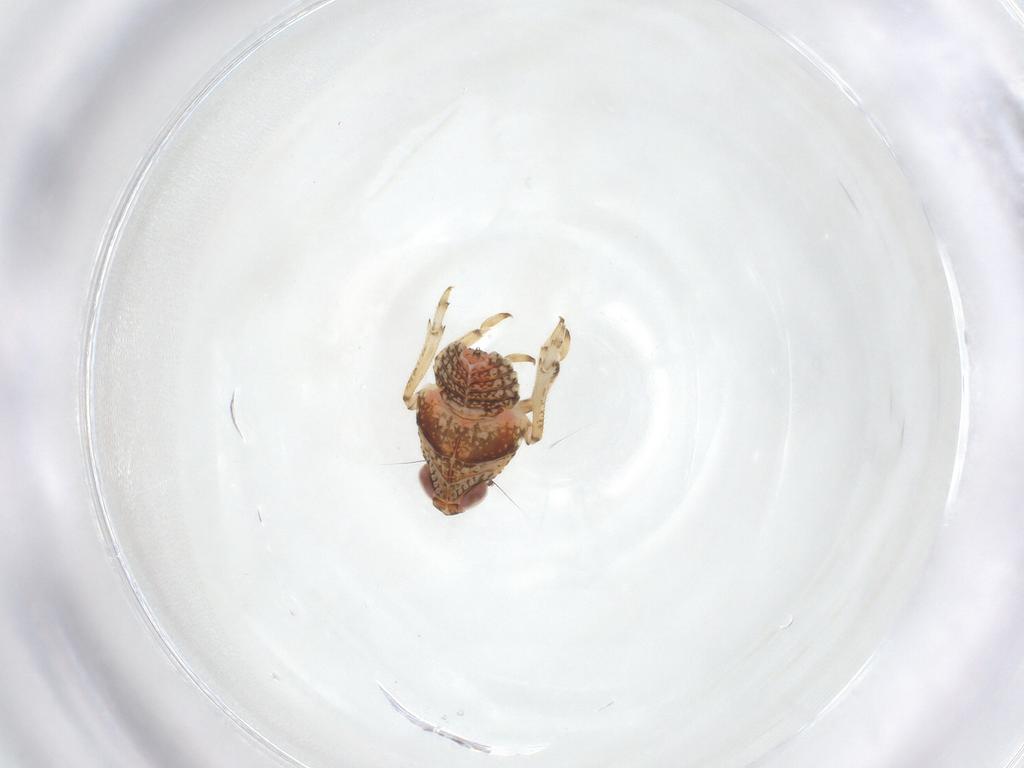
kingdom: Animalia
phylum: Arthropoda
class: Insecta
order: Hemiptera
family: Issidae
